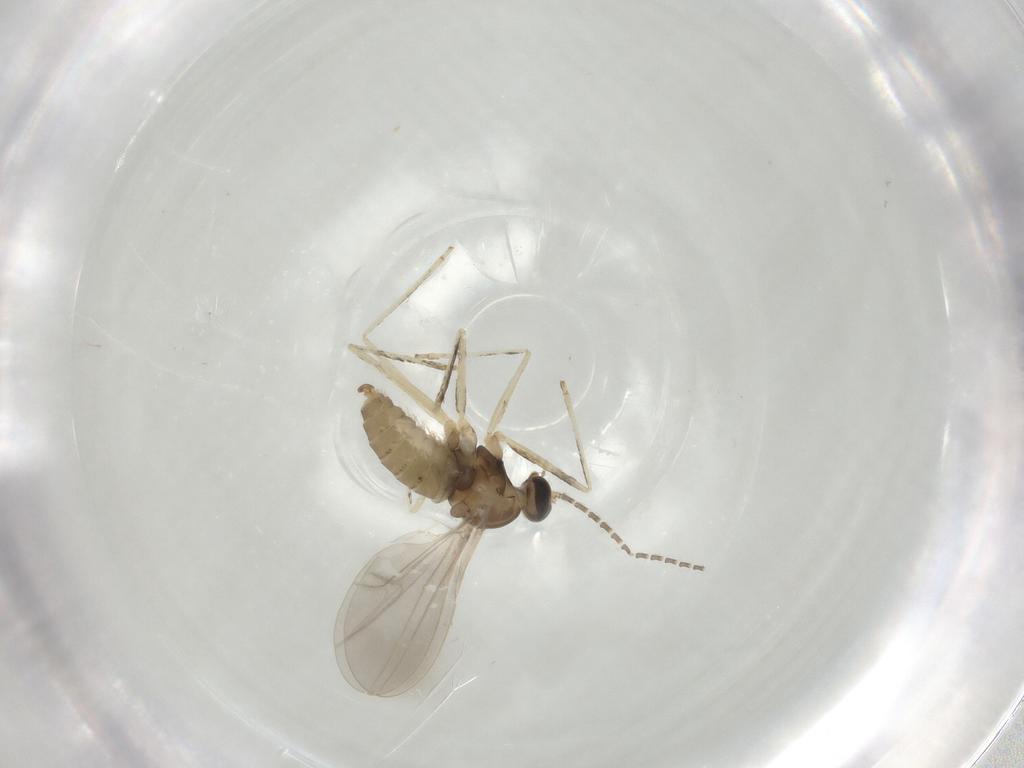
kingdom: Animalia
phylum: Arthropoda
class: Insecta
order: Diptera
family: Cecidomyiidae
